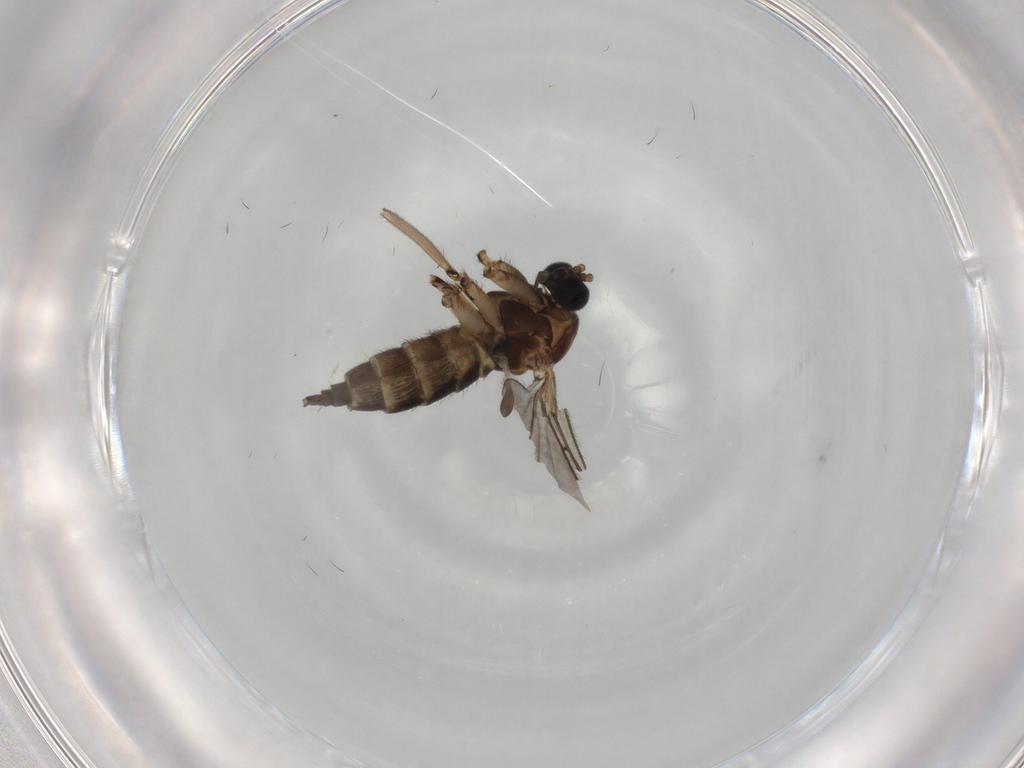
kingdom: Animalia
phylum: Arthropoda
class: Insecta
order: Diptera
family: Sciaridae
